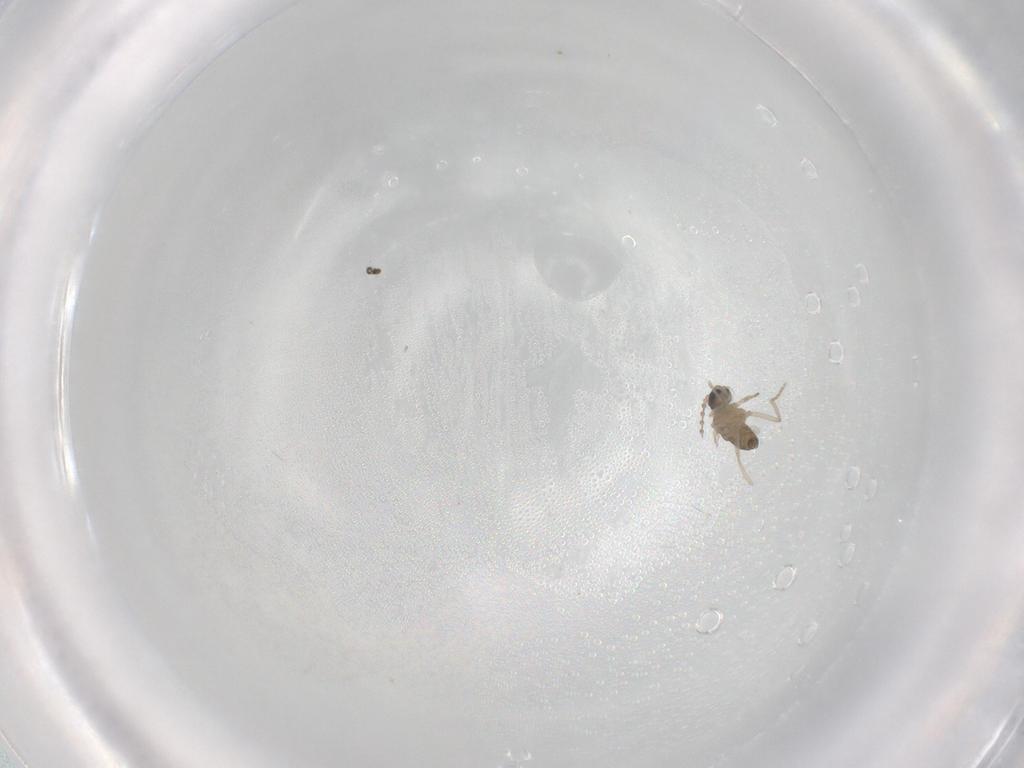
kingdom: Animalia
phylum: Arthropoda
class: Insecta
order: Diptera
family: Cecidomyiidae
